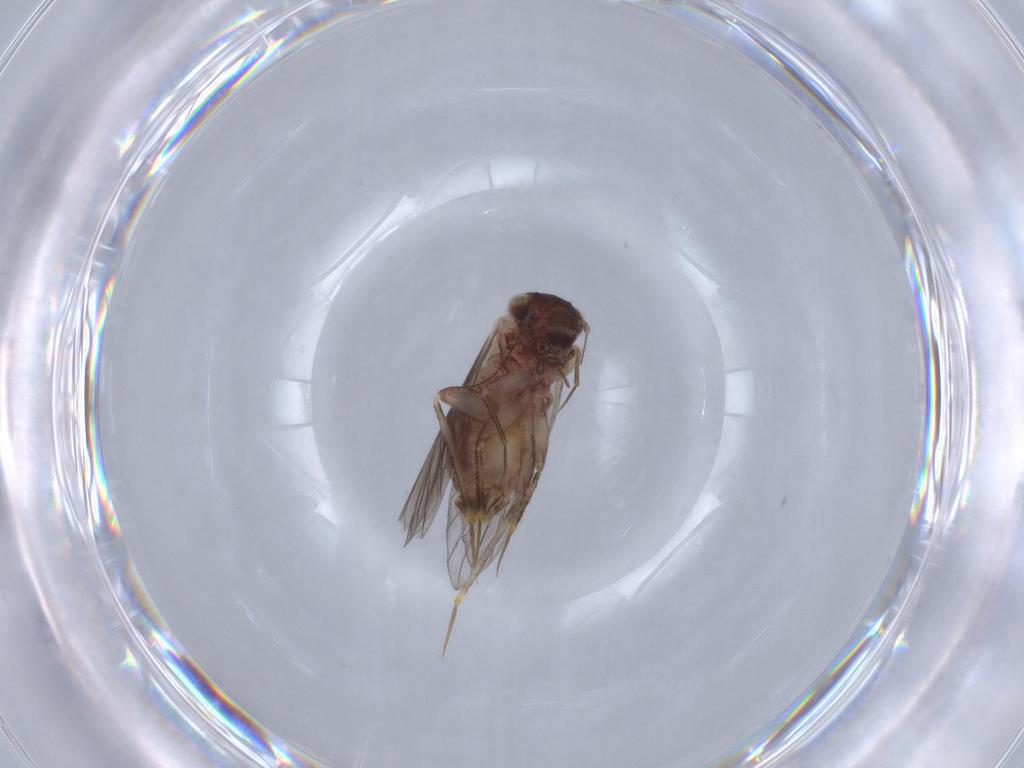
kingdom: Animalia
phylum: Arthropoda
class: Insecta
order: Psocodea
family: Lepidopsocidae
